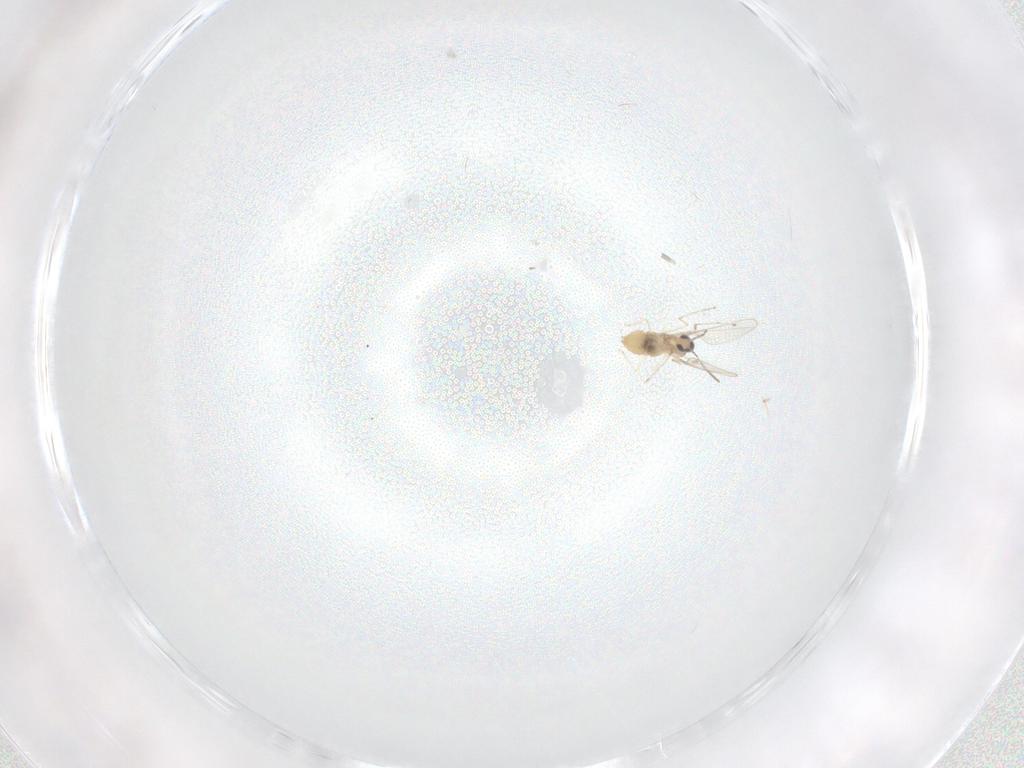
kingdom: Animalia
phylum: Arthropoda
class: Insecta
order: Diptera
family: Cecidomyiidae
